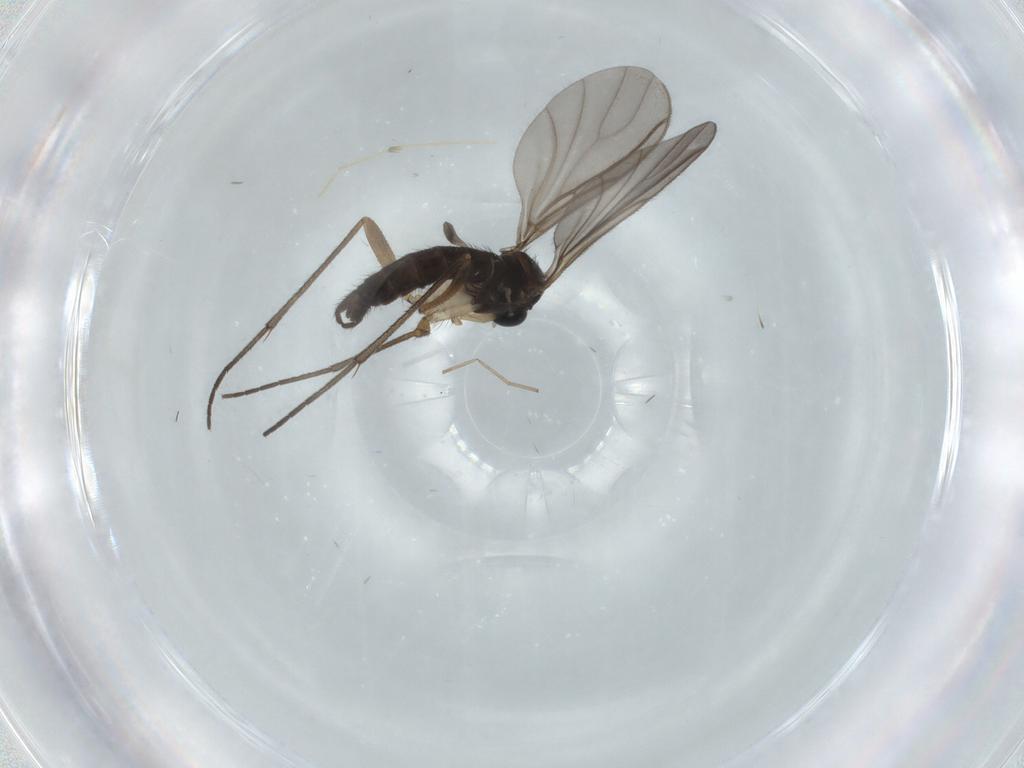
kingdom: Animalia
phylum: Arthropoda
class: Insecta
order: Diptera
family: Sciaridae
